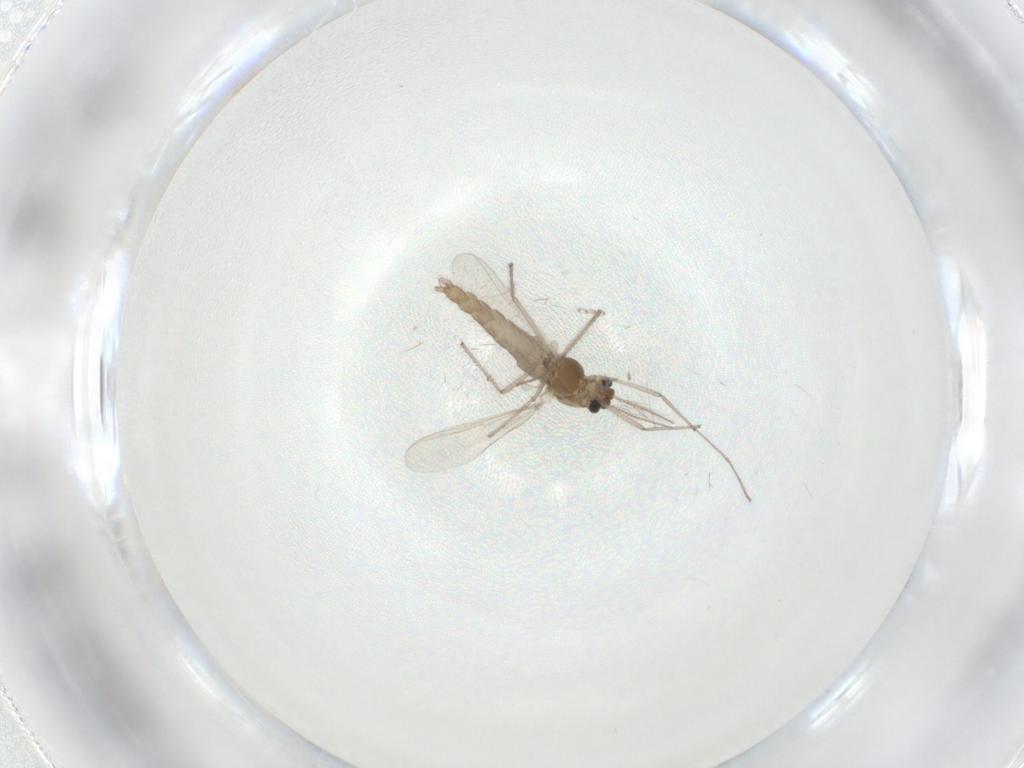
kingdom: Animalia
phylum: Arthropoda
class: Insecta
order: Diptera
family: Chironomidae
